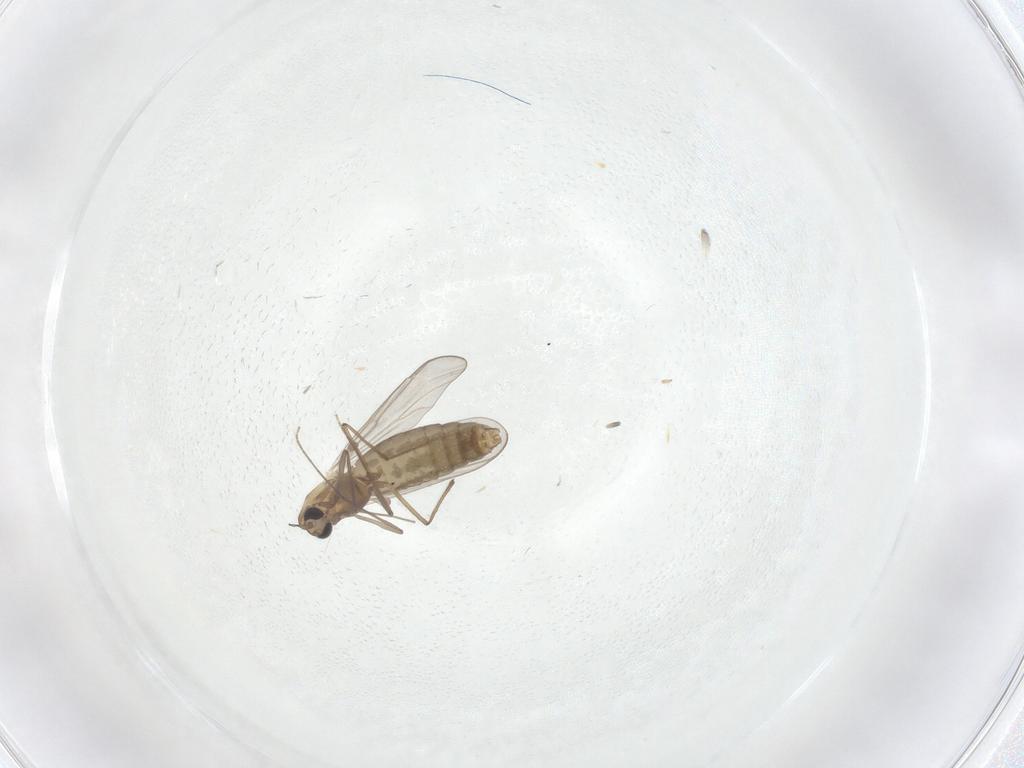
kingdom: Animalia
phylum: Arthropoda
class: Insecta
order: Diptera
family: Chironomidae
